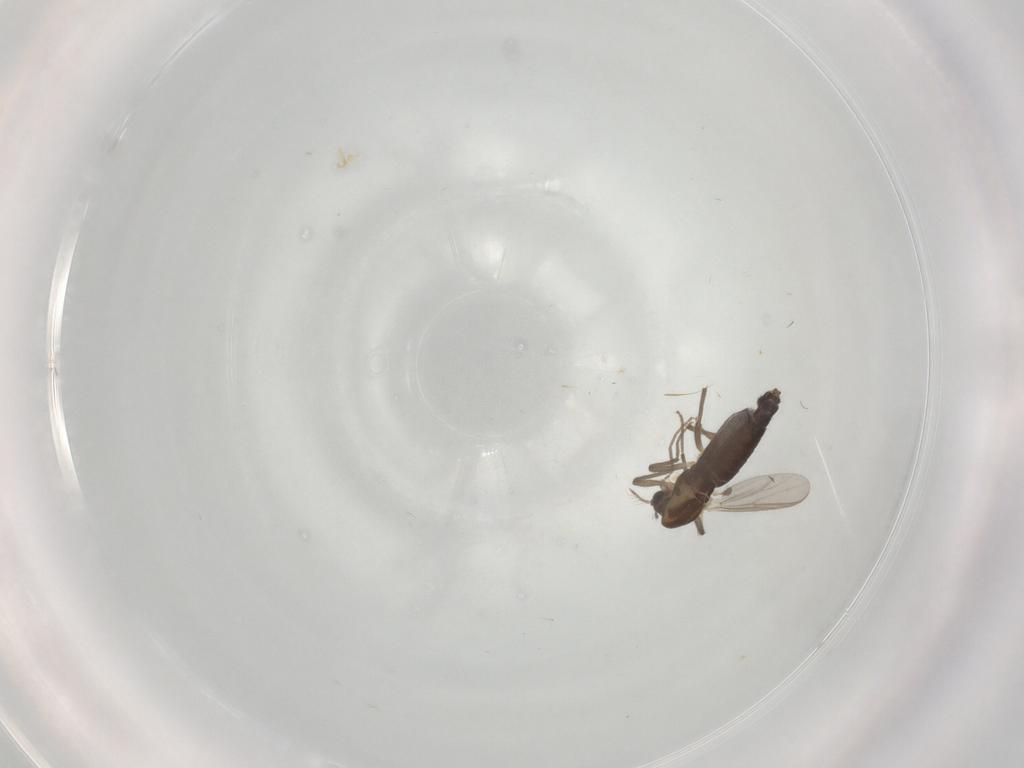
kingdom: Animalia
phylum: Arthropoda
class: Insecta
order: Diptera
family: Chironomidae
